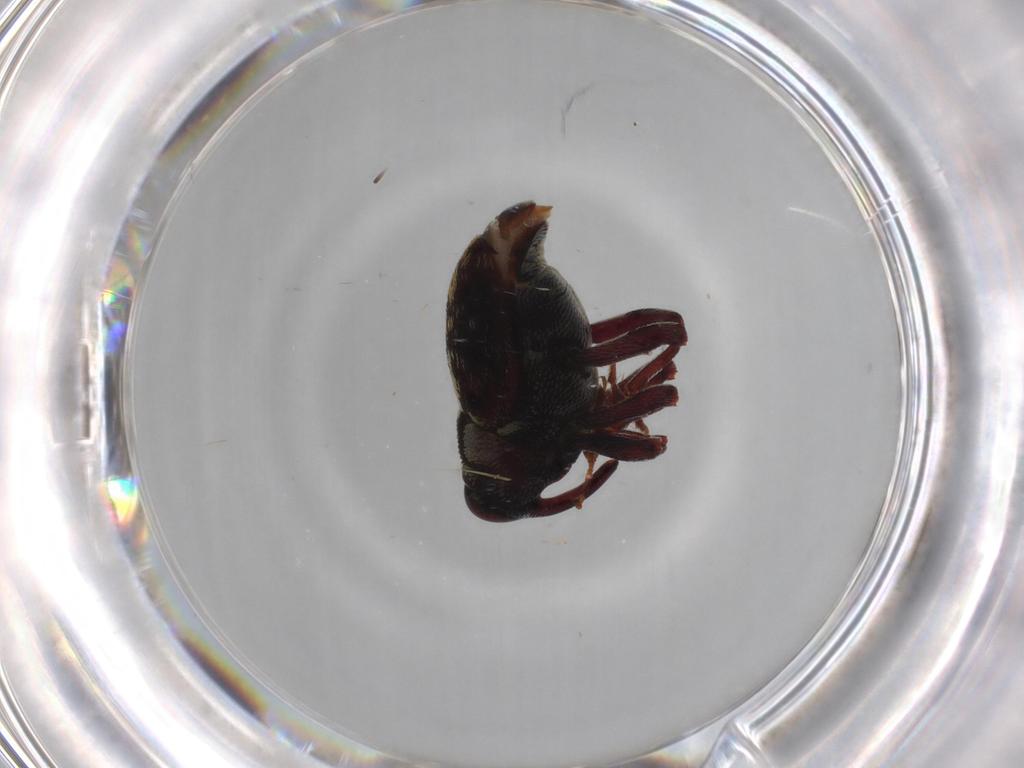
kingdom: Animalia
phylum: Arthropoda
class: Insecta
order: Coleoptera
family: Curculionidae
